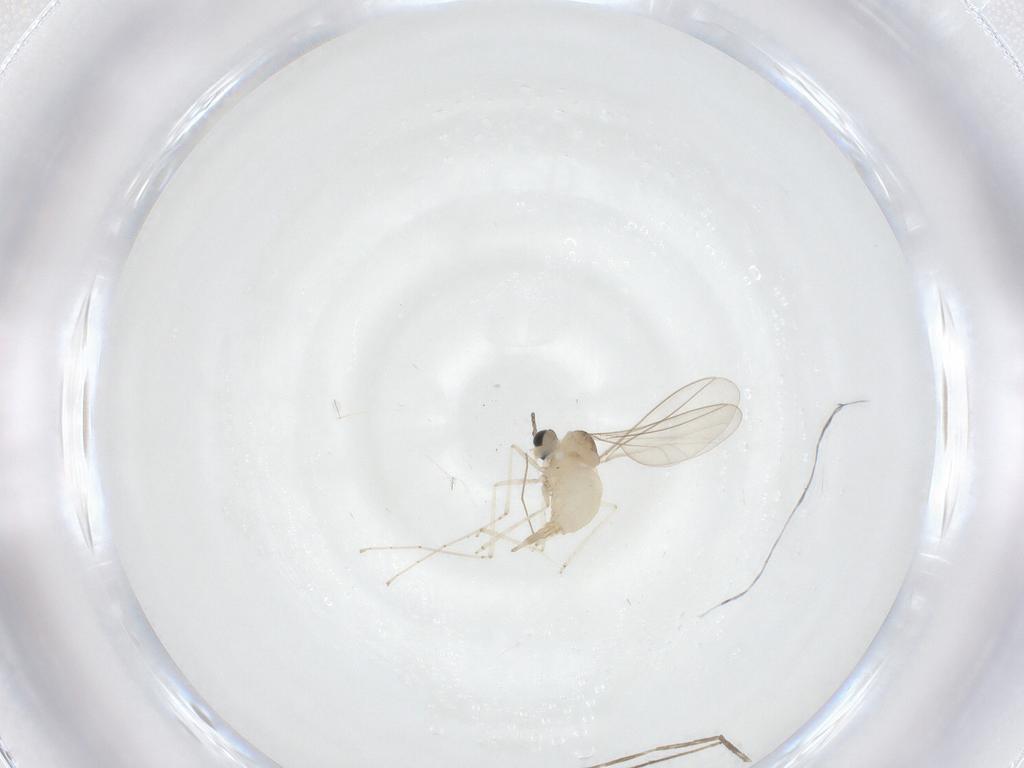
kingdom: Animalia
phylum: Arthropoda
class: Insecta
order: Diptera
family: Chironomidae
